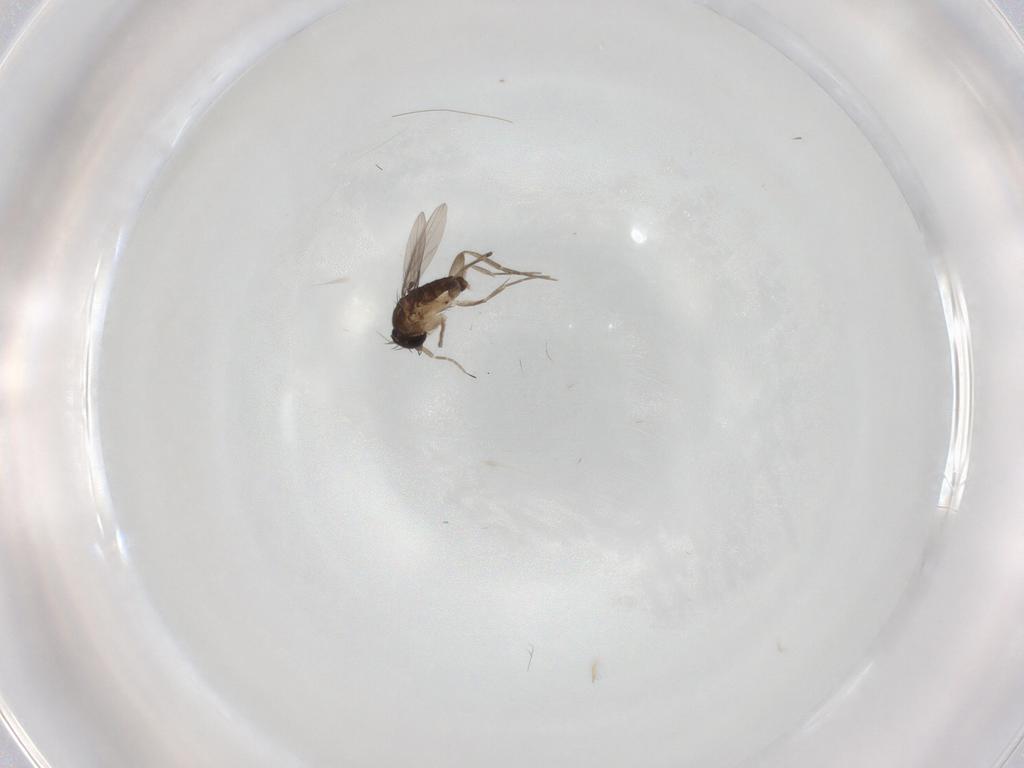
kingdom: Animalia
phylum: Arthropoda
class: Insecta
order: Diptera
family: Phoridae
